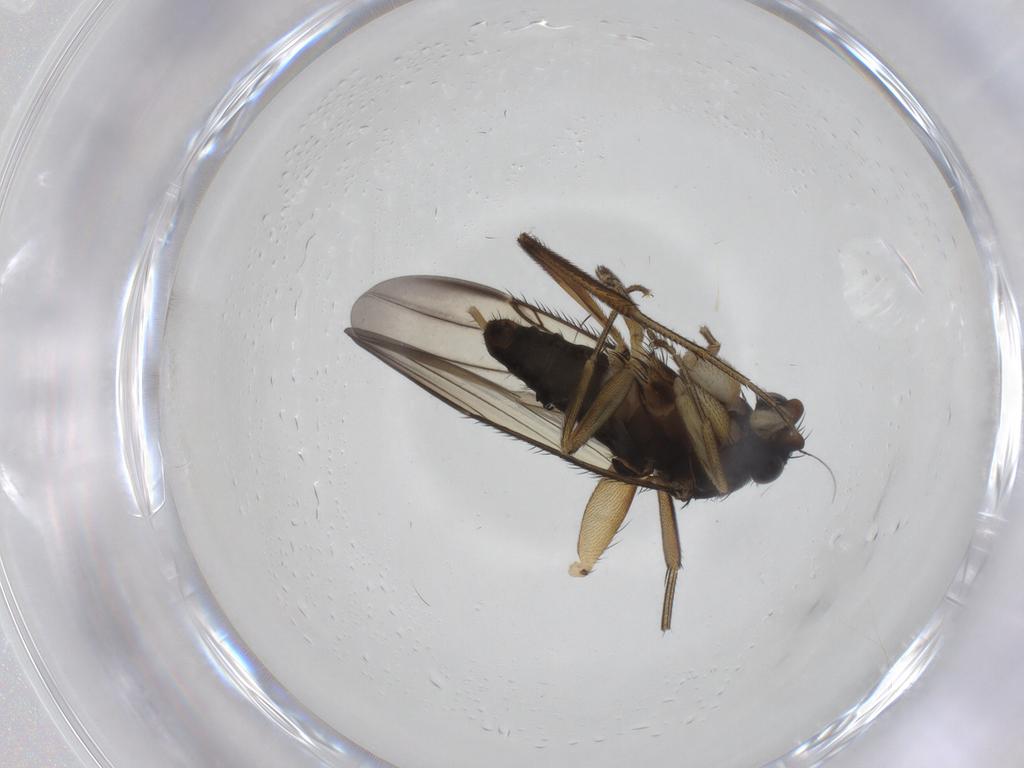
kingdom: Animalia
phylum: Arthropoda
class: Insecta
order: Diptera
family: Phoridae
